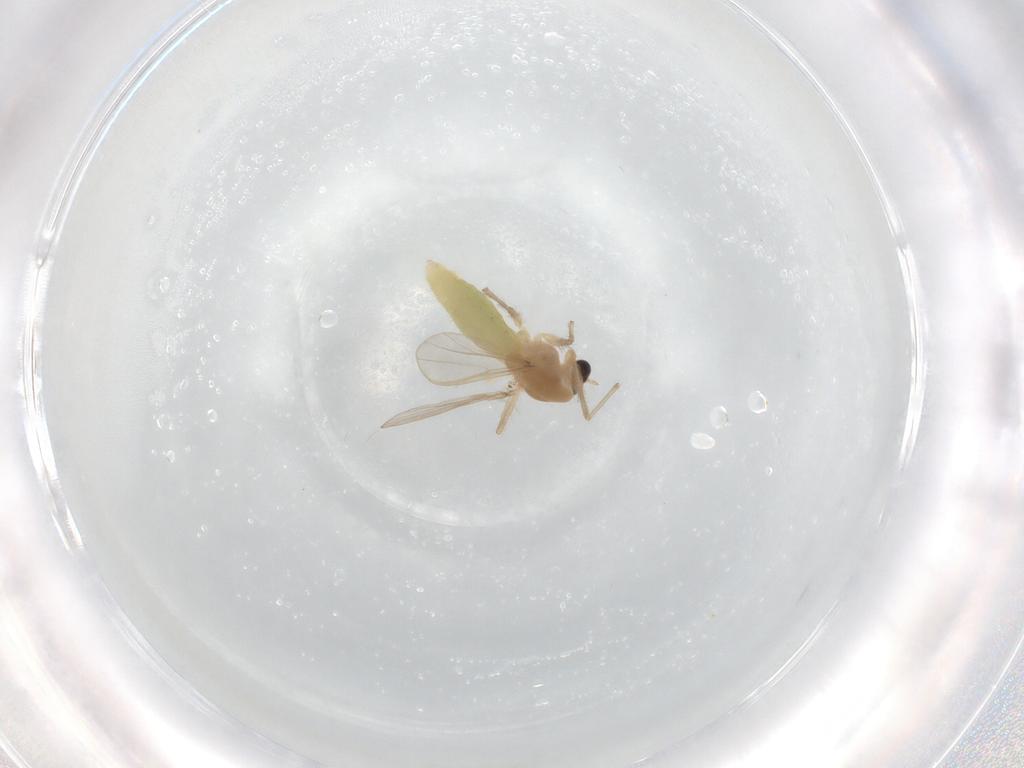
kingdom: Animalia
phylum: Arthropoda
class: Insecta
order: Diptera
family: Chironomidae
